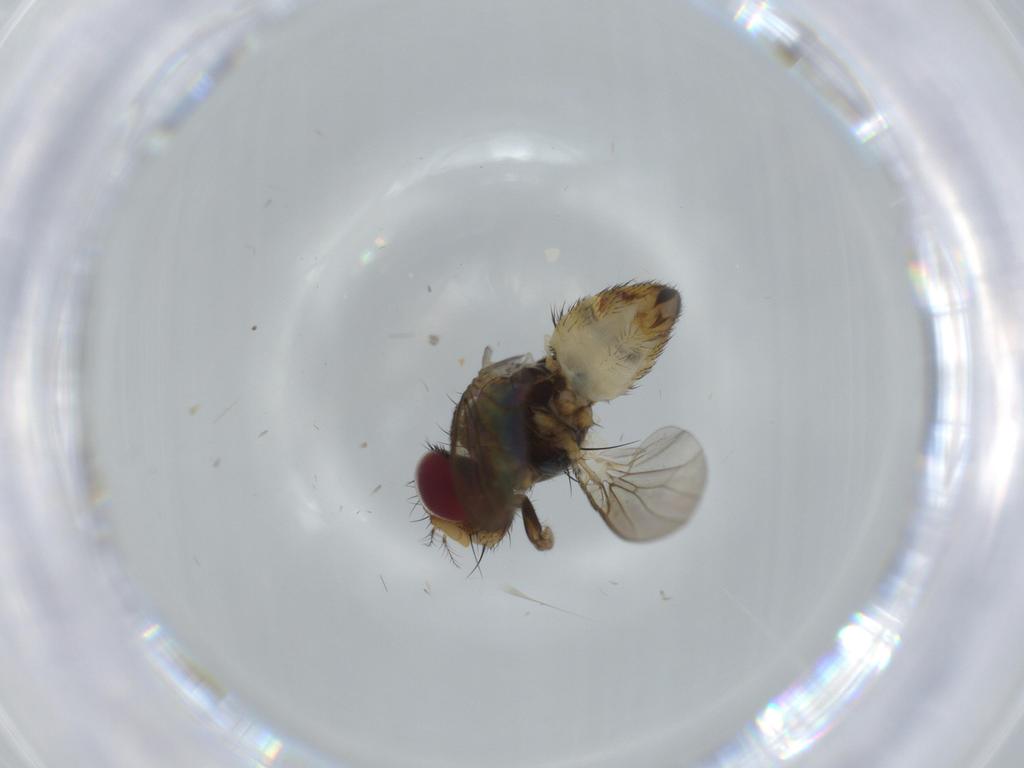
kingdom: Animalia
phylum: Arthropoda
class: Insecta
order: Diptera
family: Anthomyiidae
